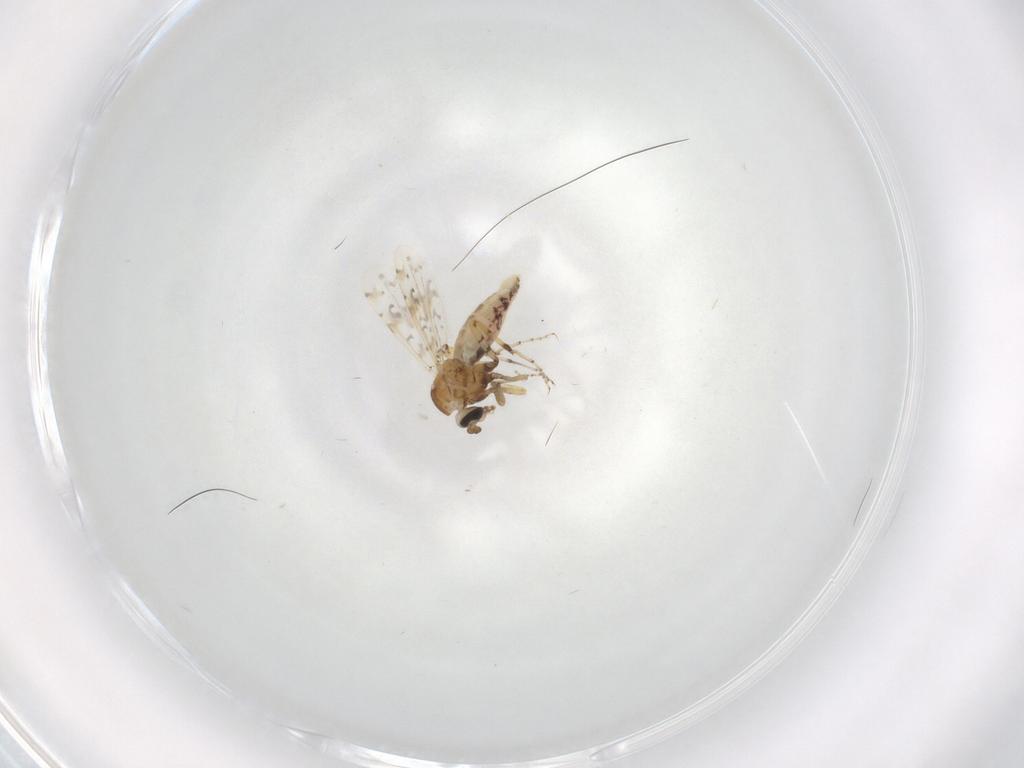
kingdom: Animalia
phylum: Arthropoda
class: Insecta
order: Diptera
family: Ceratopogonidae
